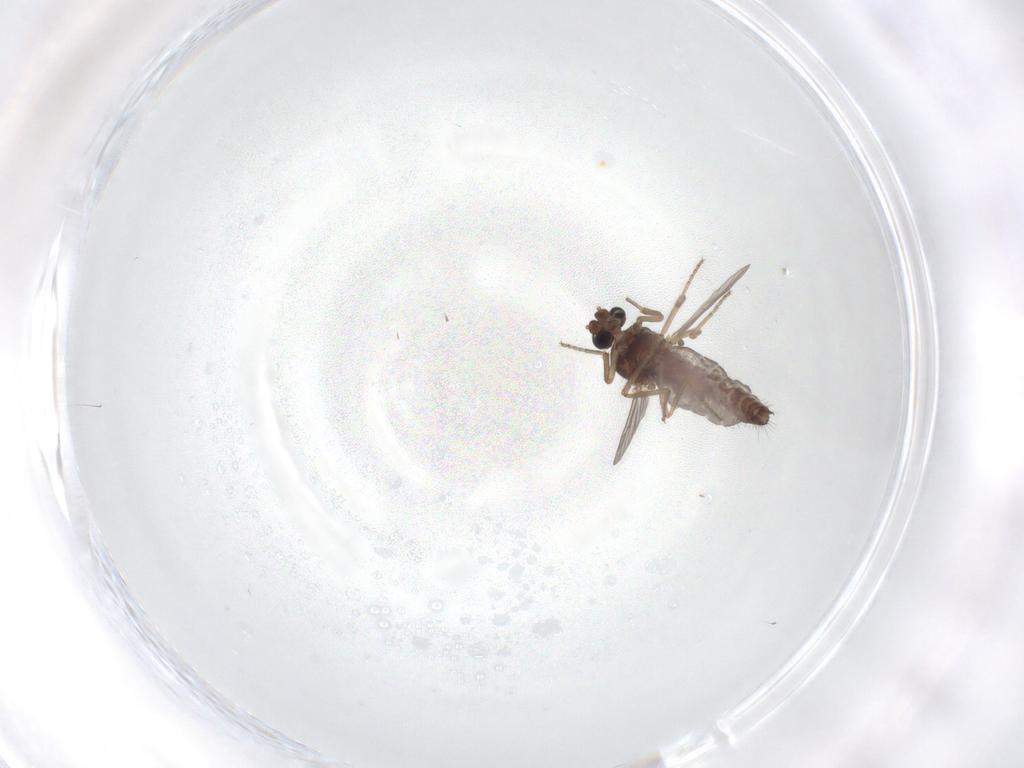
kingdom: Animalia
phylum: Arthropoda
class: Insecta
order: Diptera
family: Ceratopogonidae
